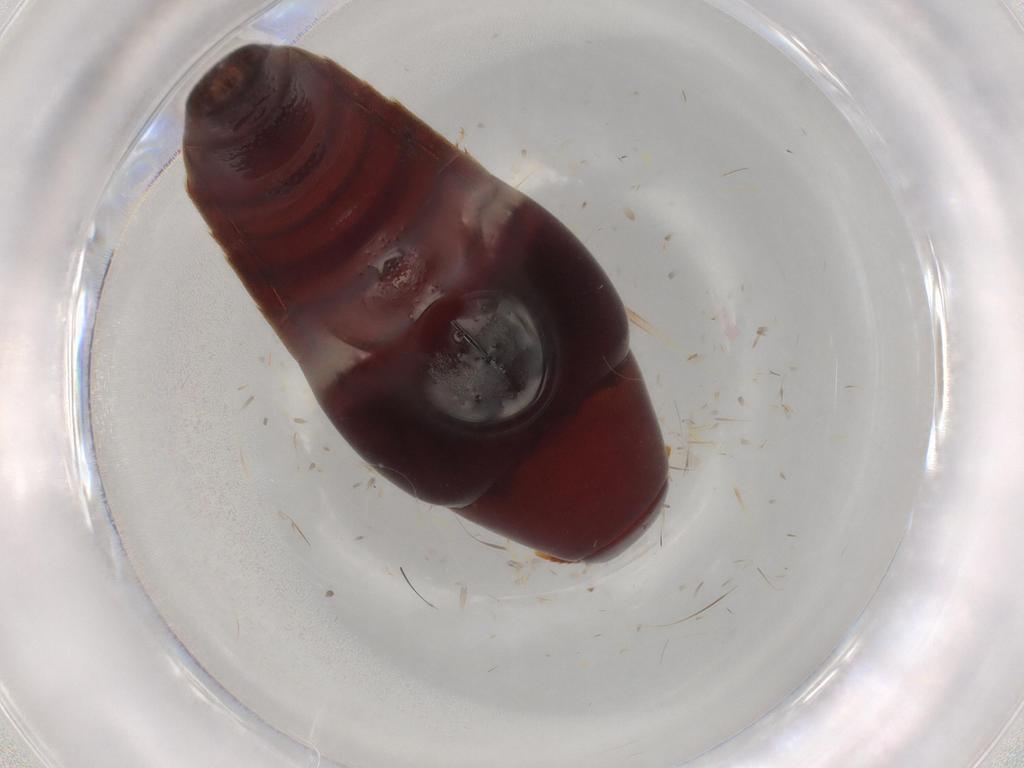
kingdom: Animalia
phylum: Arthropoda
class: Insecta
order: Coleoptera
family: Staphylinidae
